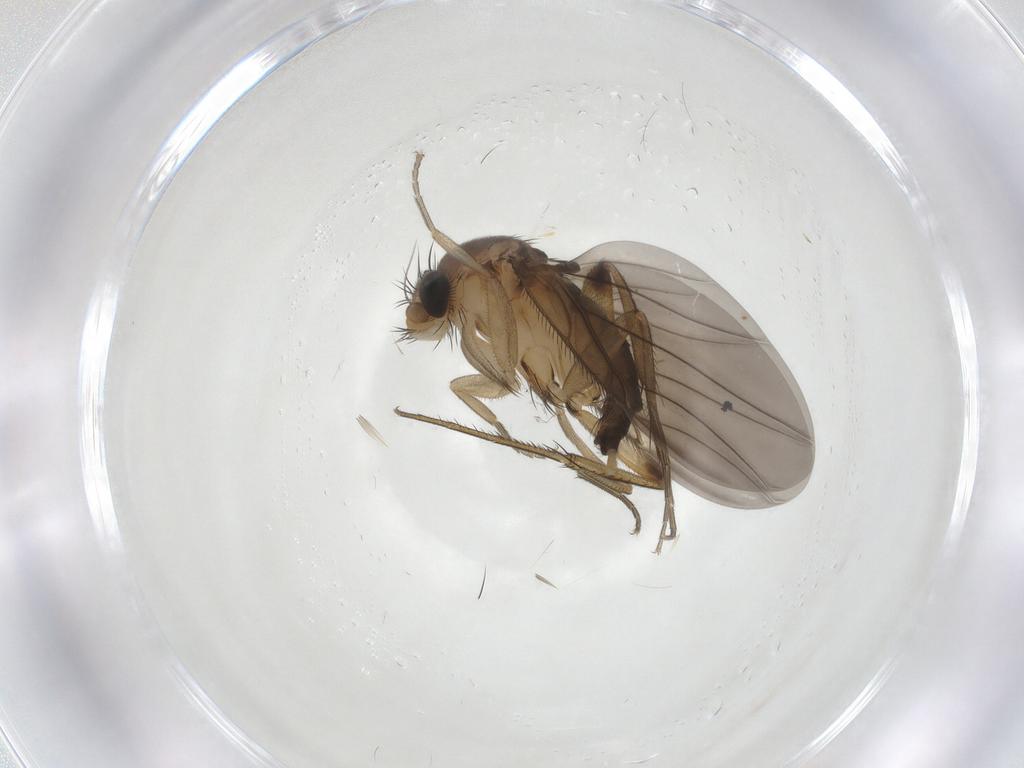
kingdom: Animalia
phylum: Arthropoda
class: Insecta
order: Diptera
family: Phoridae
